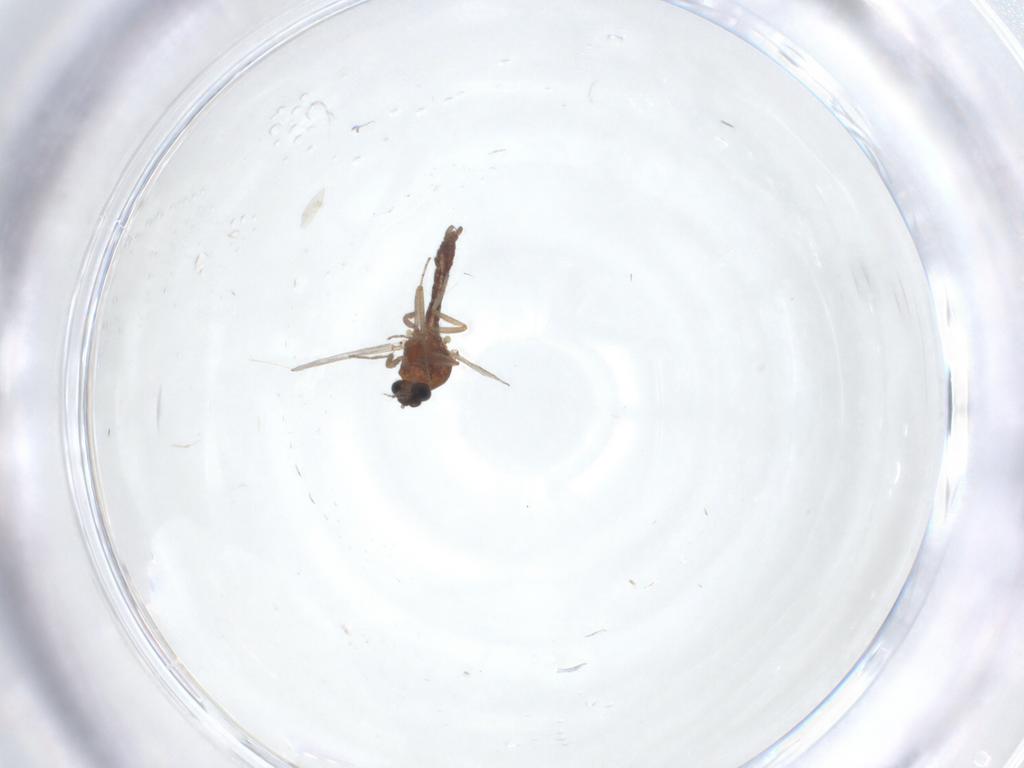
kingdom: Animalia
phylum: Arthropoda
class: Insecta
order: Diptera
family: Ceratopogonidae
